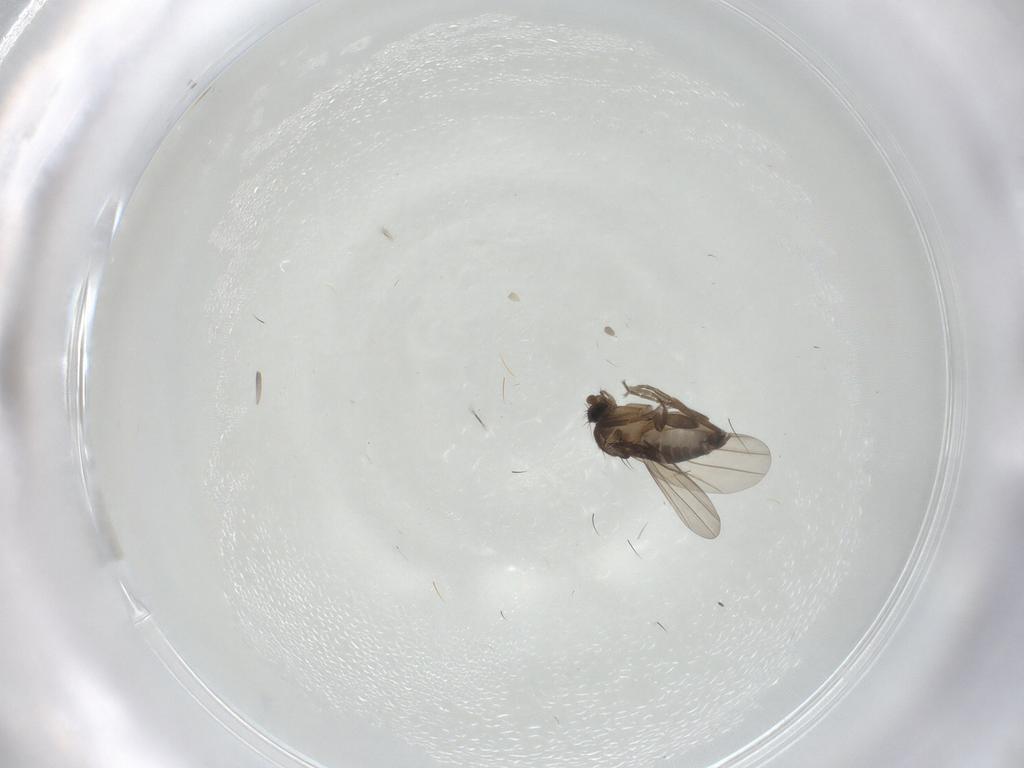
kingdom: Animalia
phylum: Arthropoda
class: Insecta
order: Diptera
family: Phoridae
